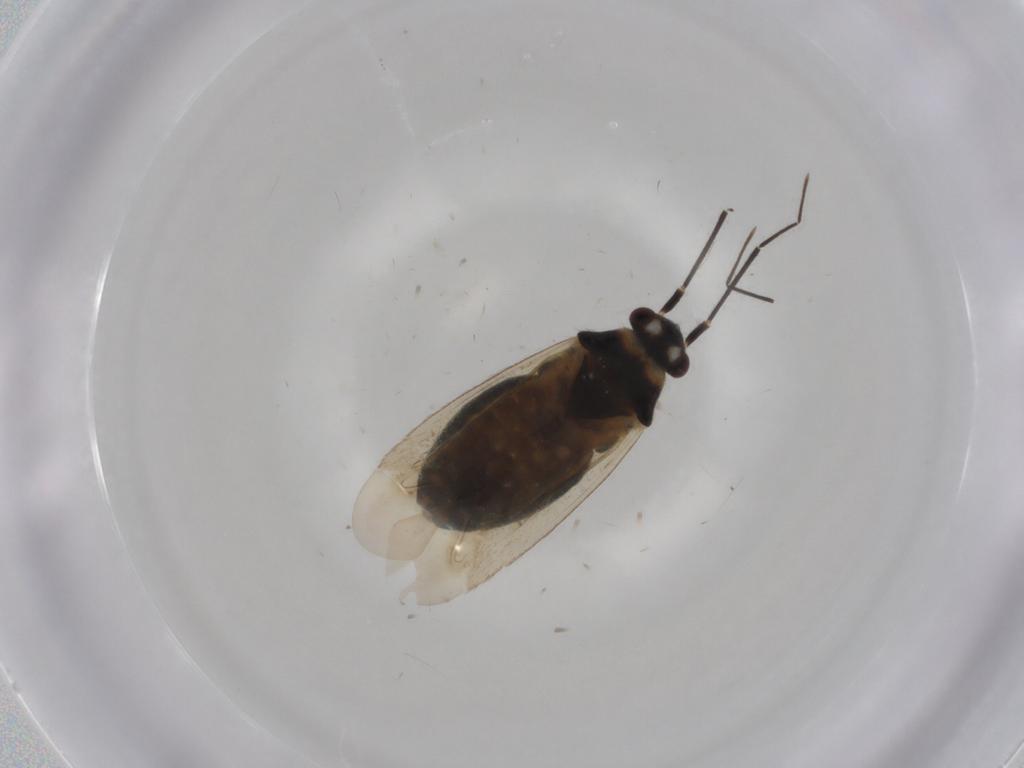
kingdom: Animalia
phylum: Arthropoda
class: Insecta
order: Hemiptera
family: Miridae
